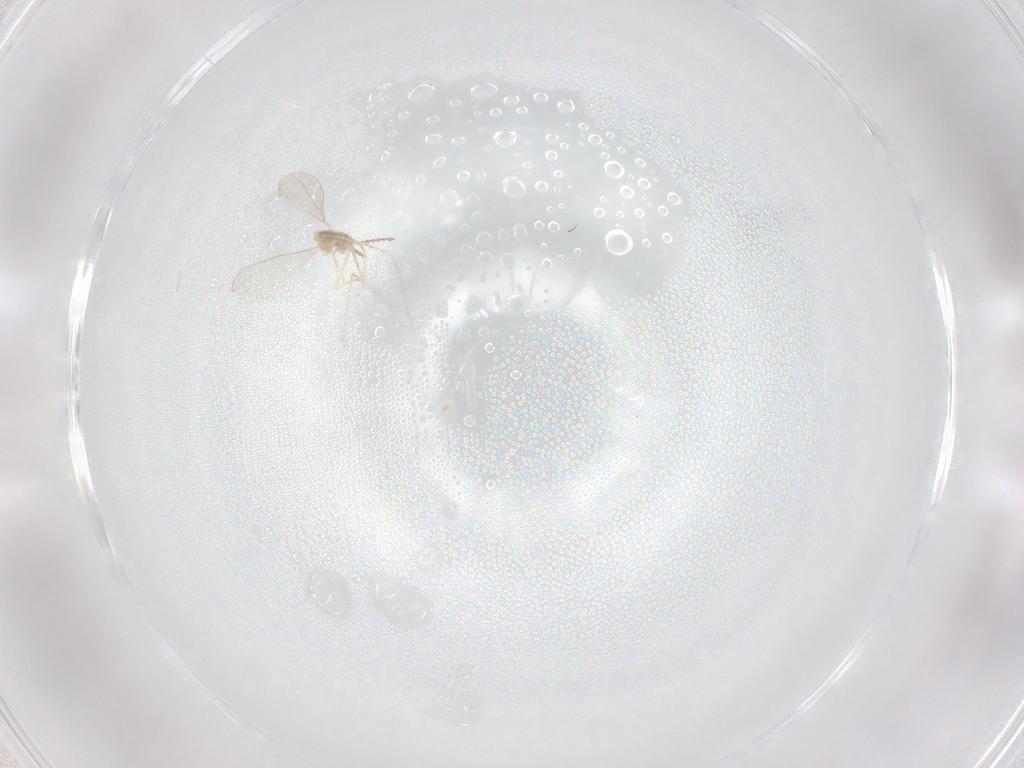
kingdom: Animalia
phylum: Arthropoda
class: Insecta
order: Diptera
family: Cecidomyiidae
